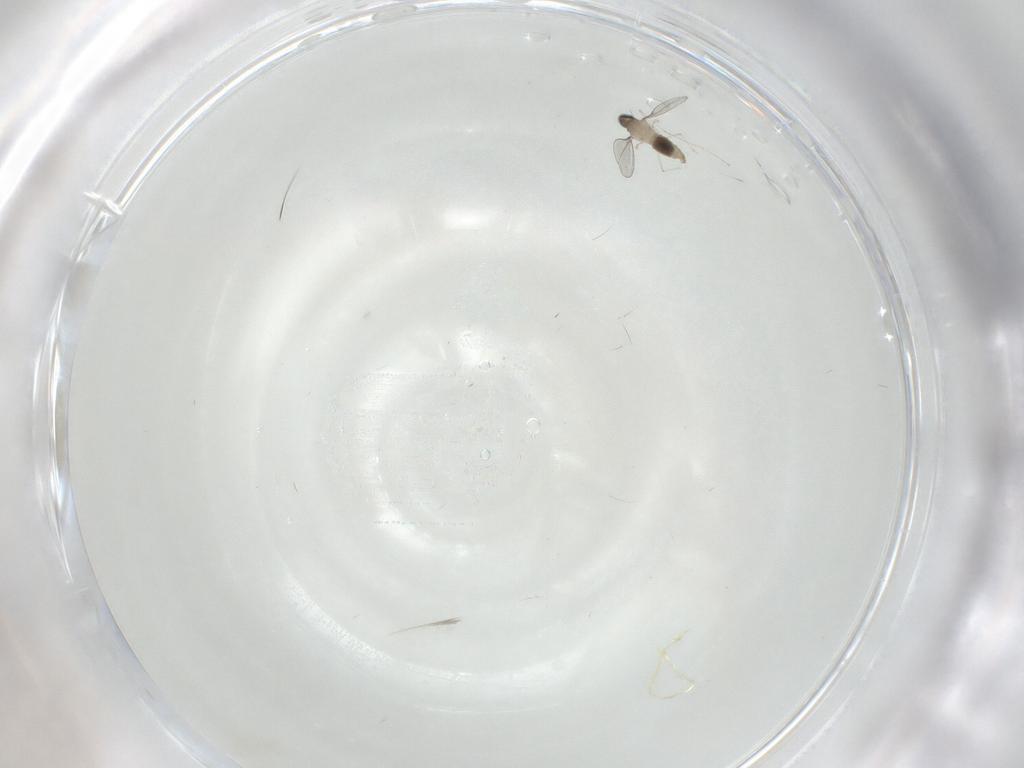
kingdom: Animalia
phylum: Arthropoda
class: Insecta
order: Diptera
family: Cecidomyiidae
